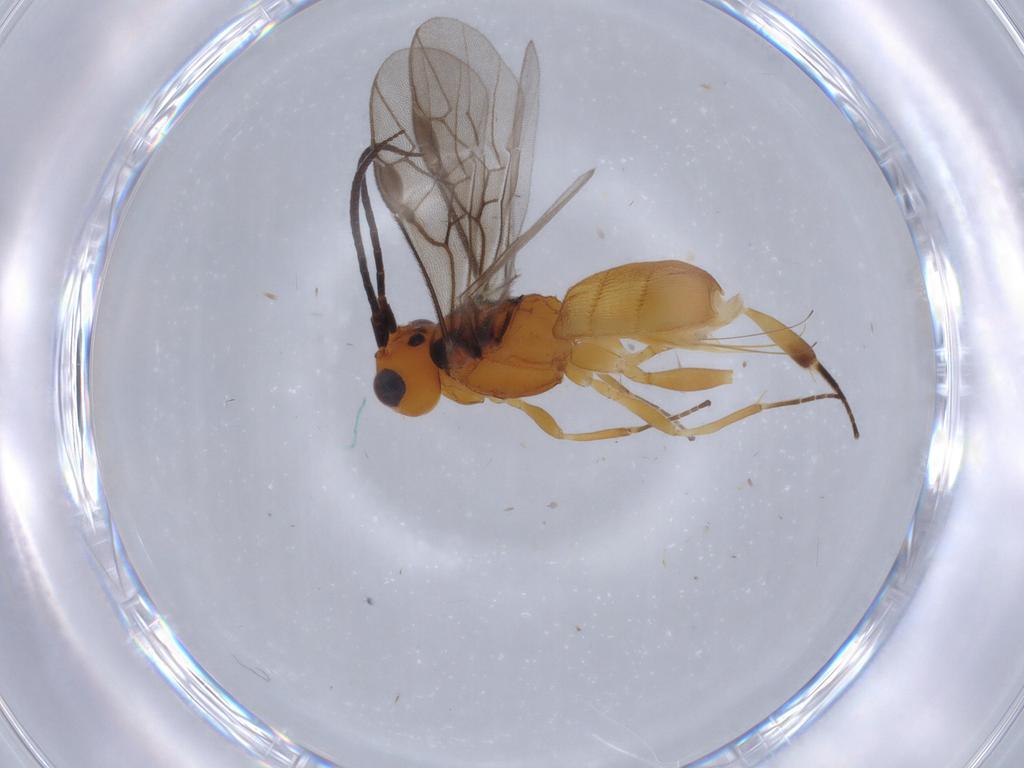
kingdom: Animalia
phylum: Arthropoda
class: Insecta
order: Hymenoptera
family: Braconidae
